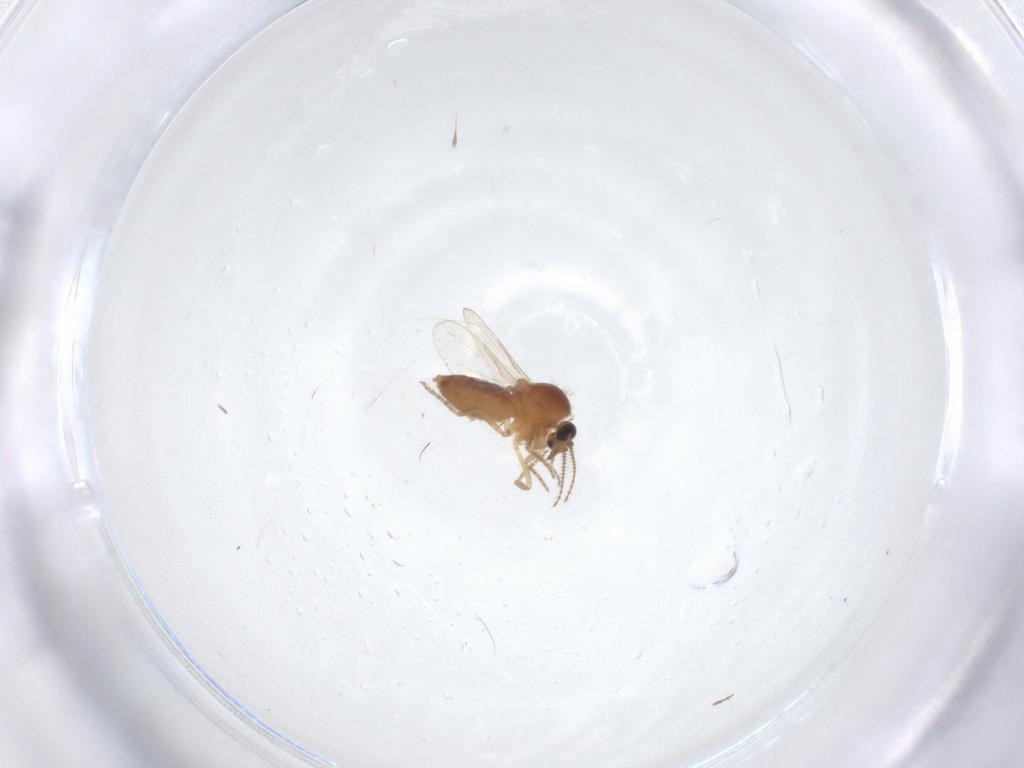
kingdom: Animalia
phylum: Arthropoda
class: Insecta
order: Diptera
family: Ceratopogonidae
